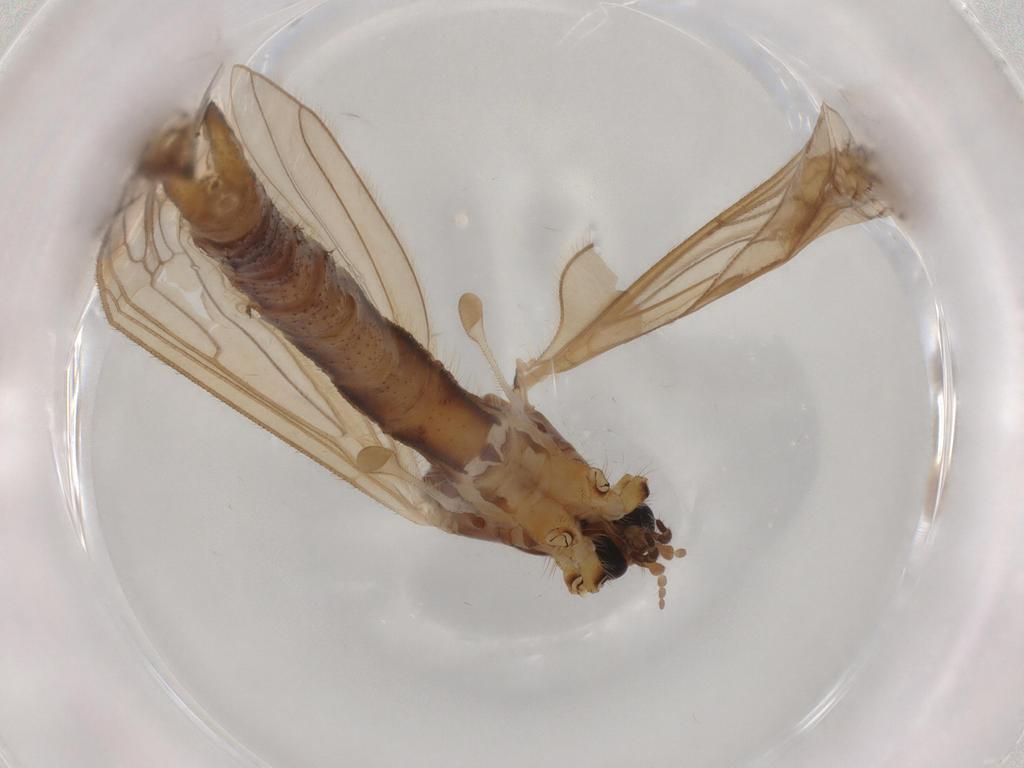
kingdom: Animalia
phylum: Arthropoda
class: Insecta
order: Diptera
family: Limoniidae
